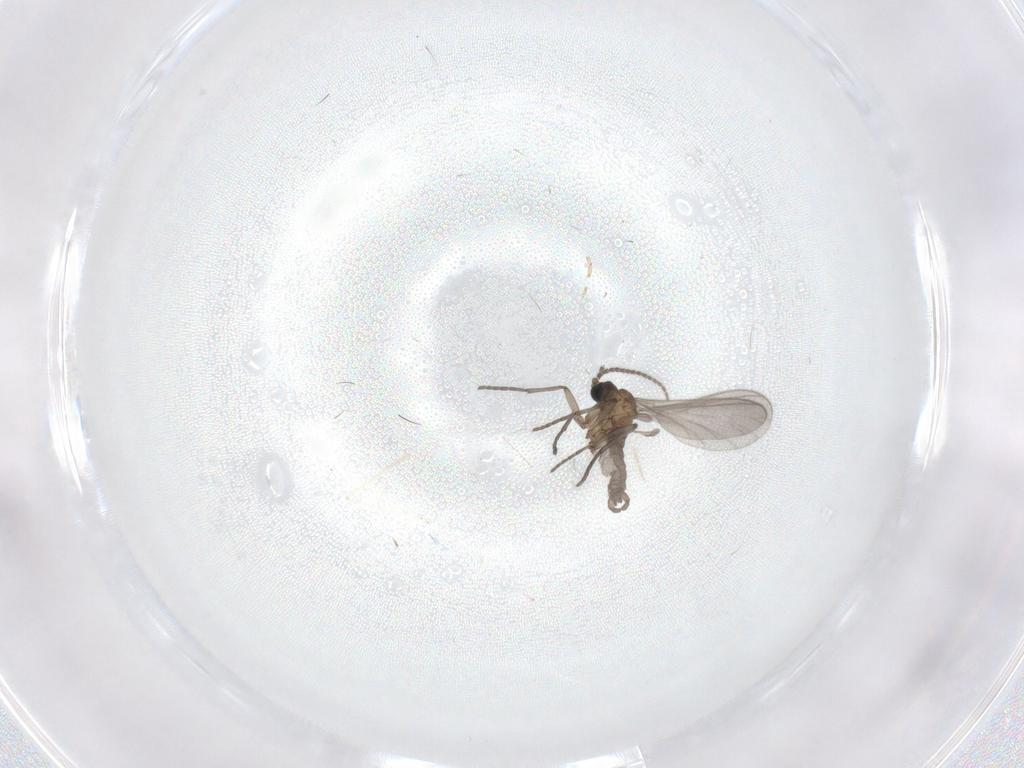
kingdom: Animalia
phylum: Arthropoda
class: Insecta
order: Diptera
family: Cecidomyiidae
